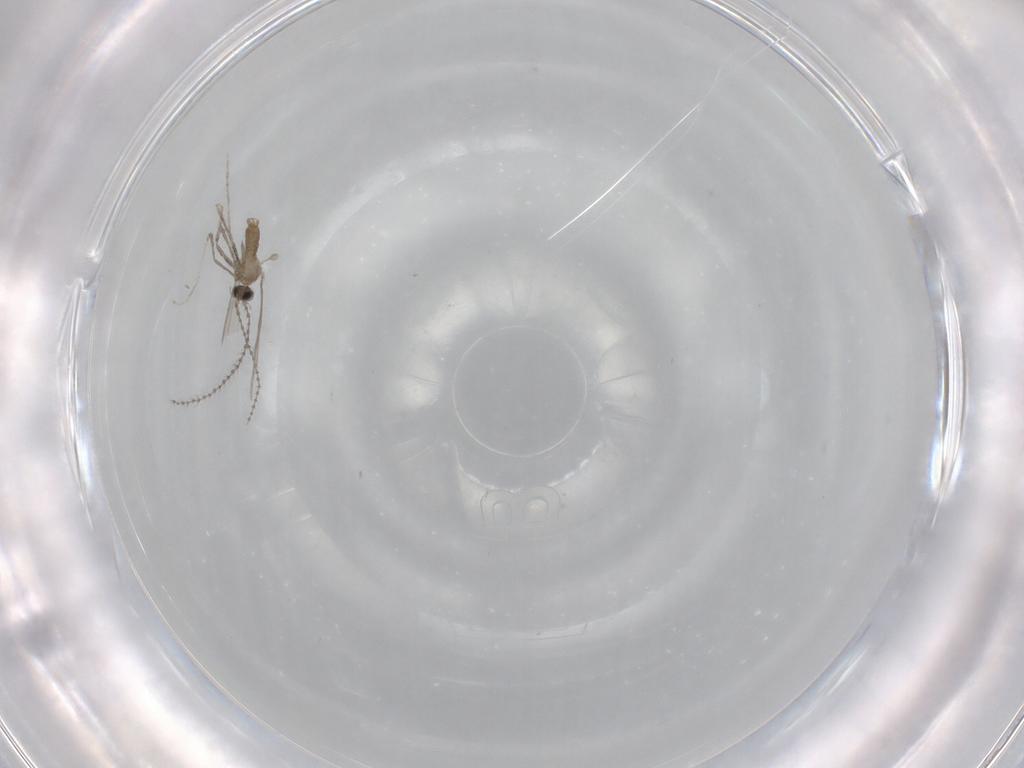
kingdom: Animalia
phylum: Arthropoda
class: Insecta
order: Diptera
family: Cecidomyiidae
